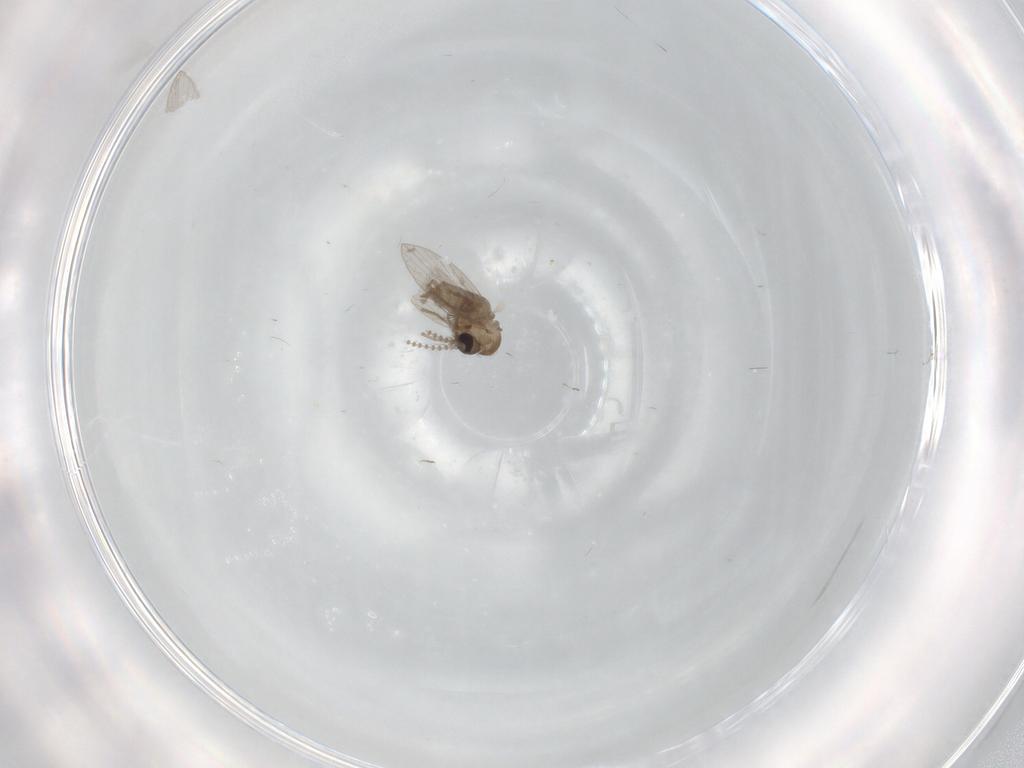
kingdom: Animalia
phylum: Arthropoda
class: Insecta
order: Diptera
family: Psychodidae
